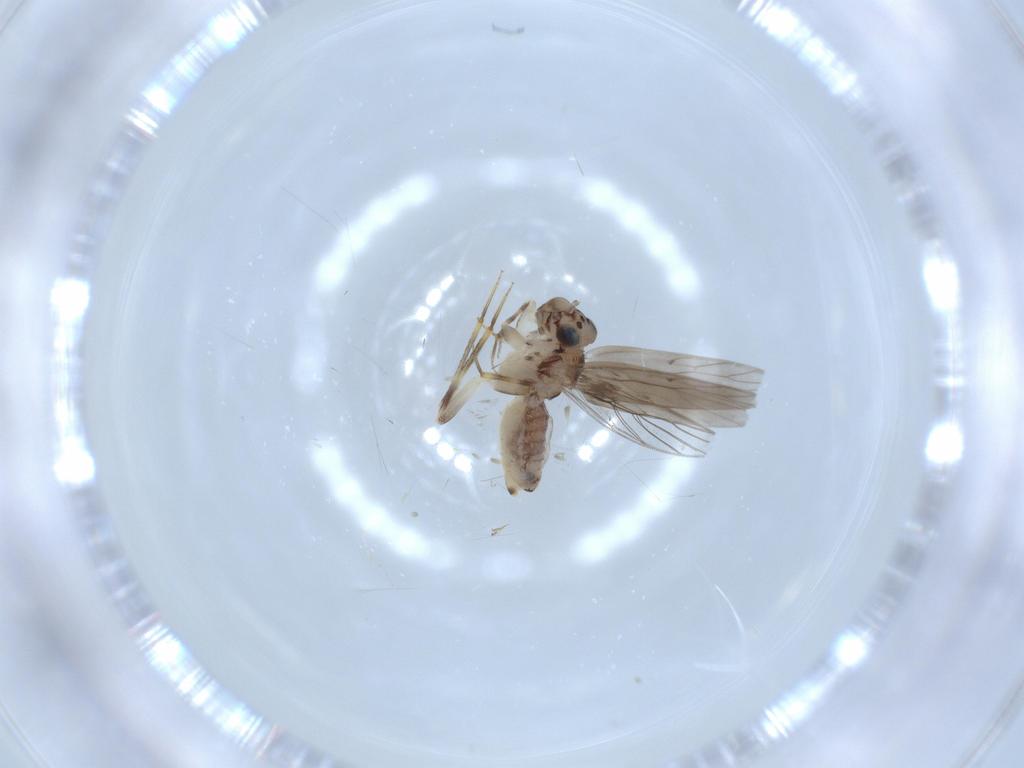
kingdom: Animalia
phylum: Arthropoda
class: Insecta
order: Psocodea
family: Lepidopsocidae
